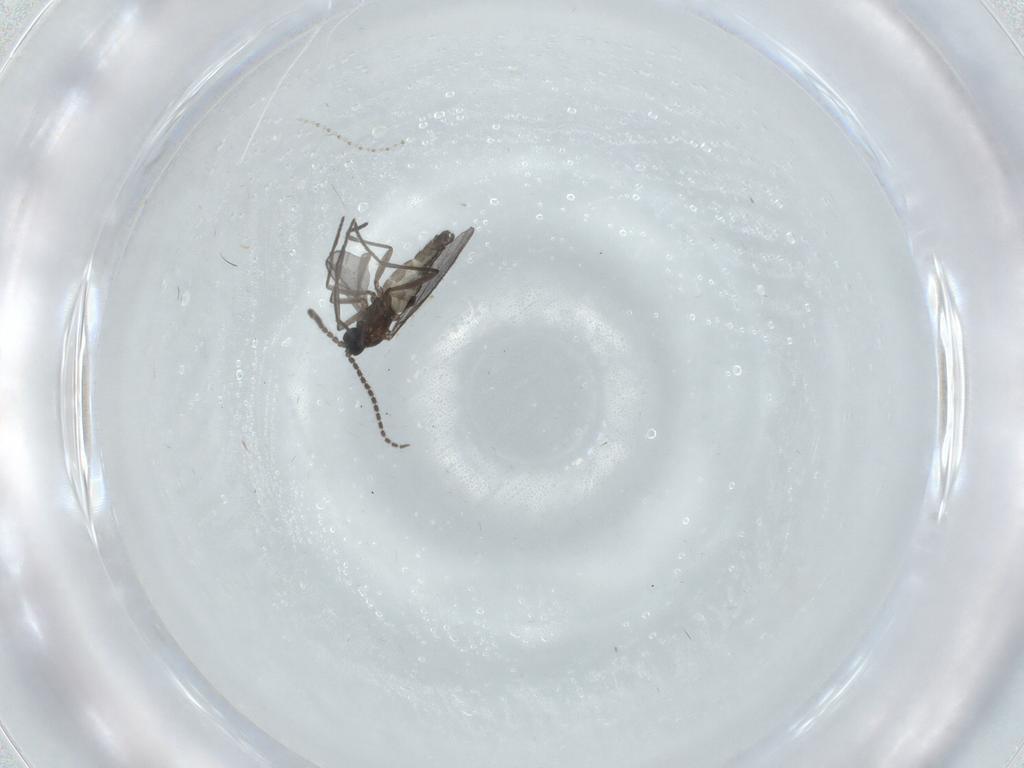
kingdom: Animalia
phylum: Arthropoda
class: Insecta
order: Diptera
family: Cecidomyiidae
